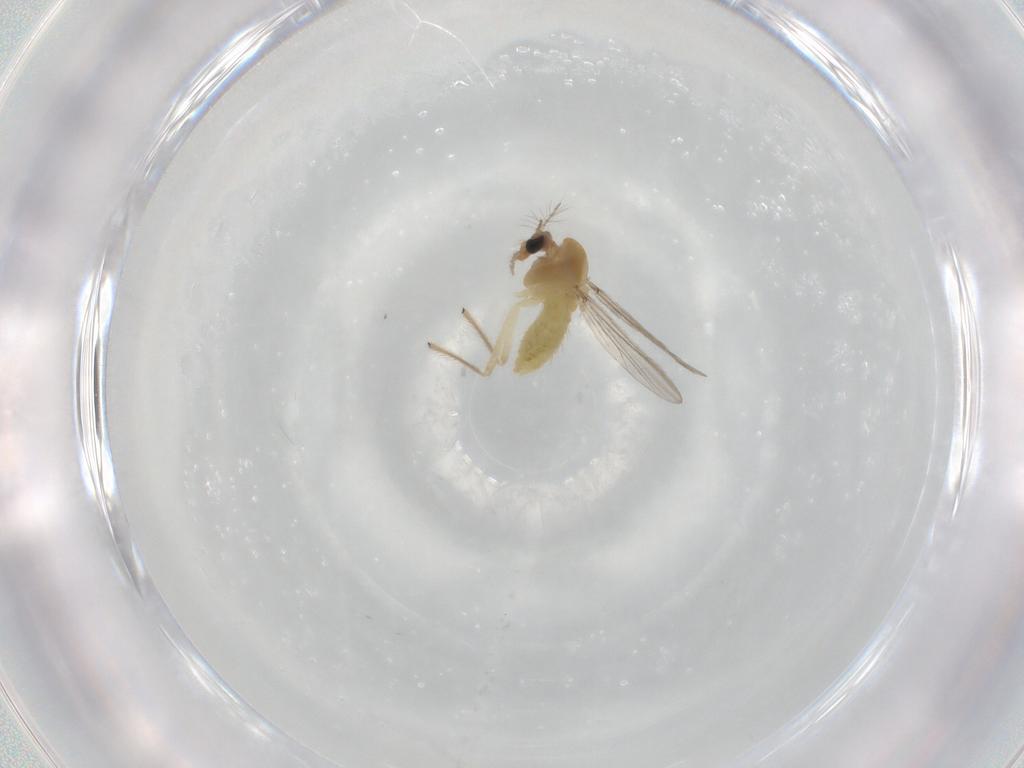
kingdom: Animalia
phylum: Arthropoda
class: Insecta
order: Diptera
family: Chironomidae
